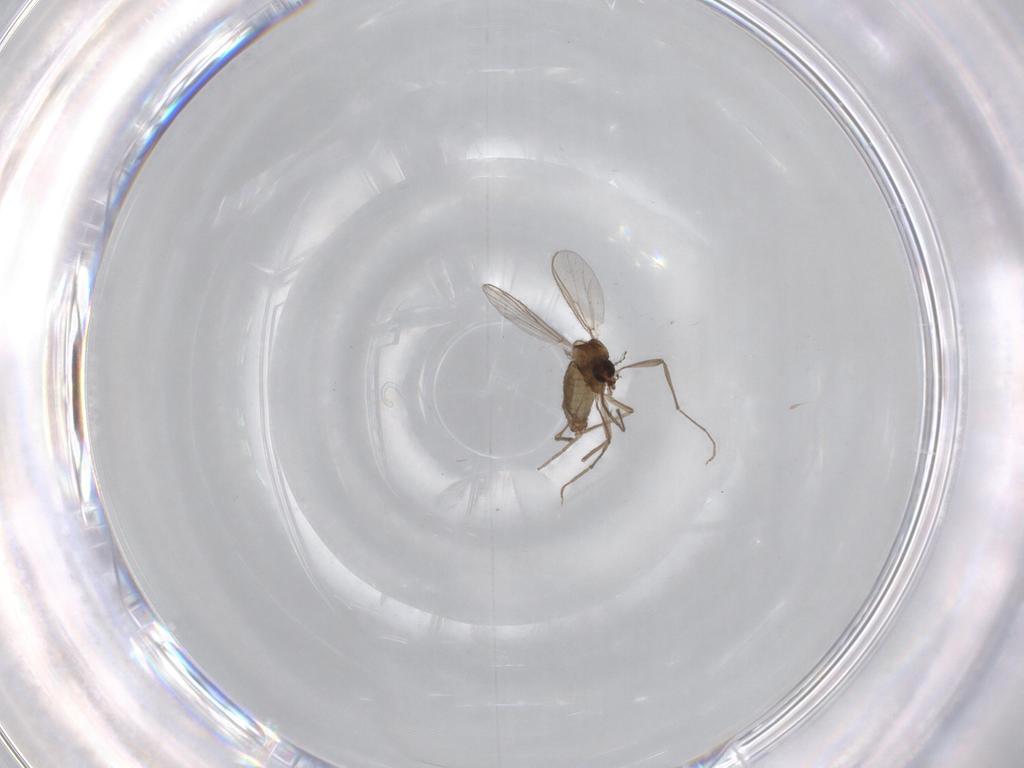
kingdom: Animalia
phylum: Arthropoda
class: Insecta
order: Diptera
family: Chironomidae
